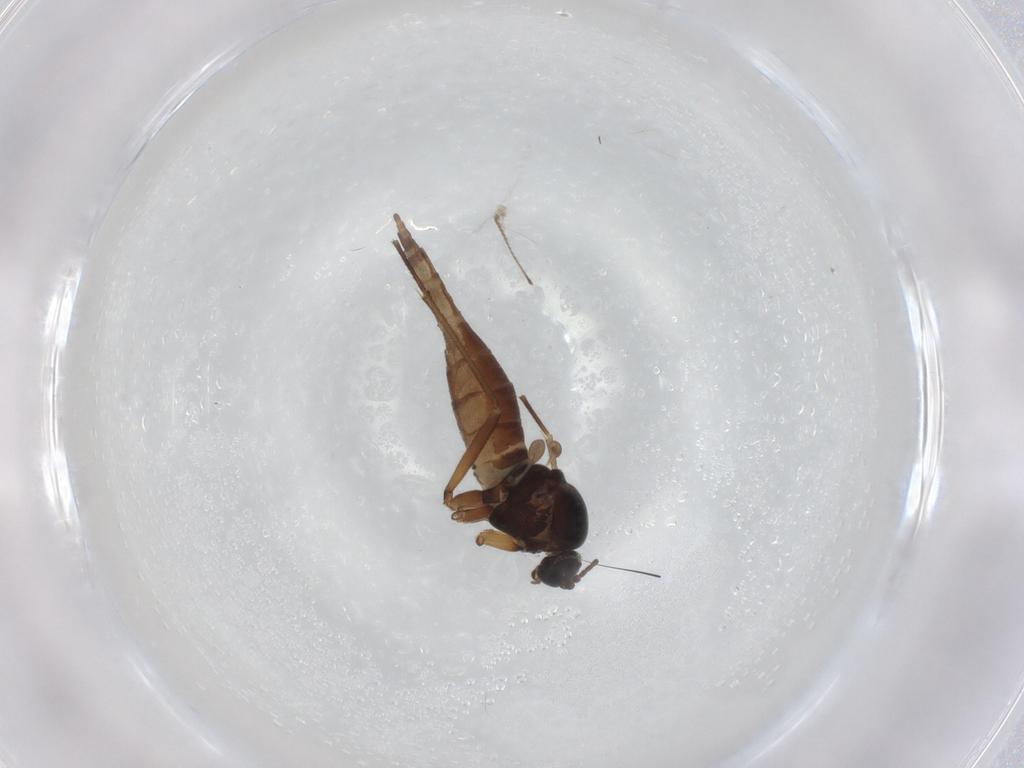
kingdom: Animalia
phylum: Arthropoda
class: Insecta
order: Diptera
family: Sciaridae
